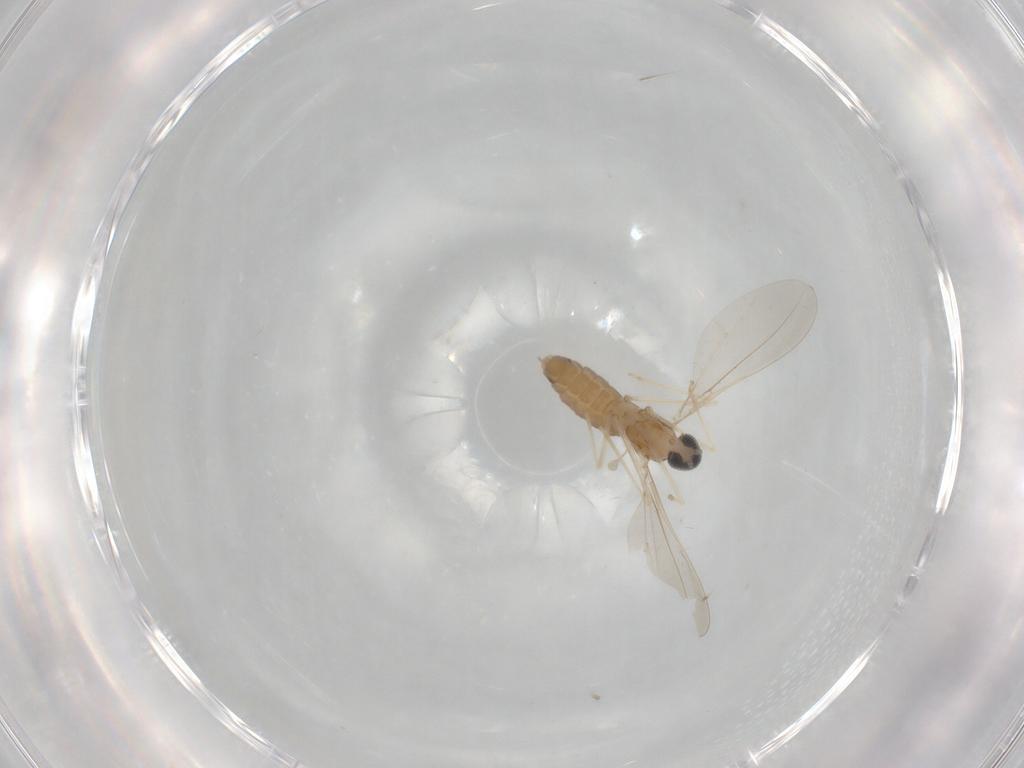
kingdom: Animalia
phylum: Arthropoda
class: Insecta
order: Diptera
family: Cecidomyiidae
